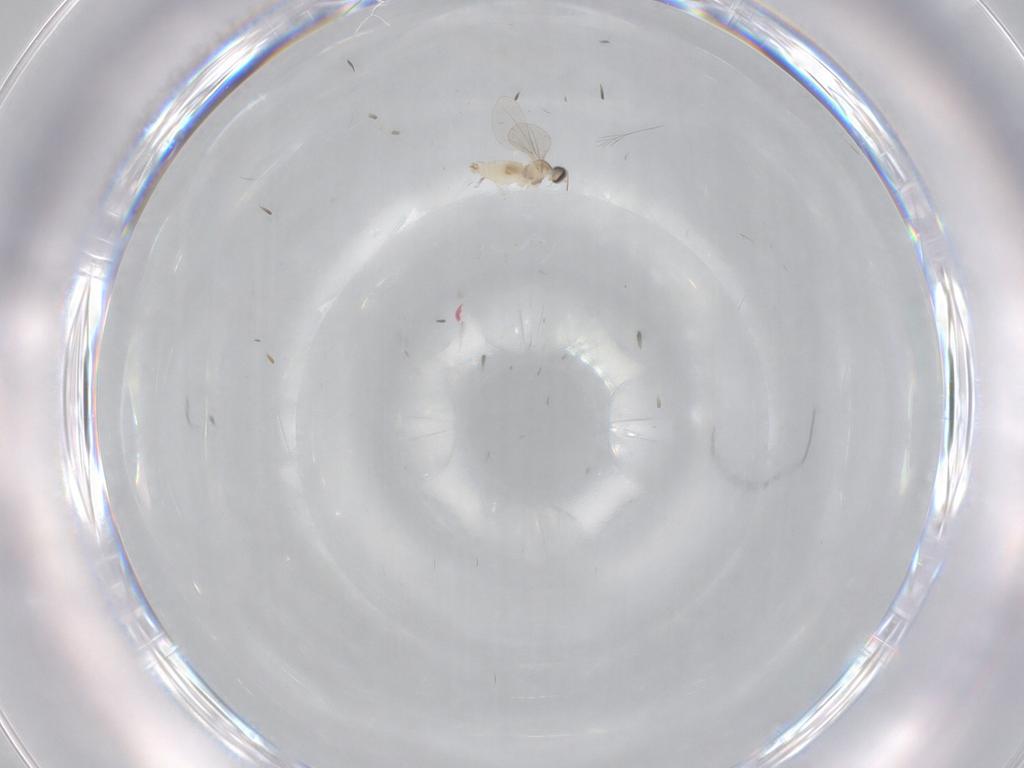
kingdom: Animalia
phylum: Arthropoda
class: Insecta
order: Diptera
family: Cecidomyiidae
